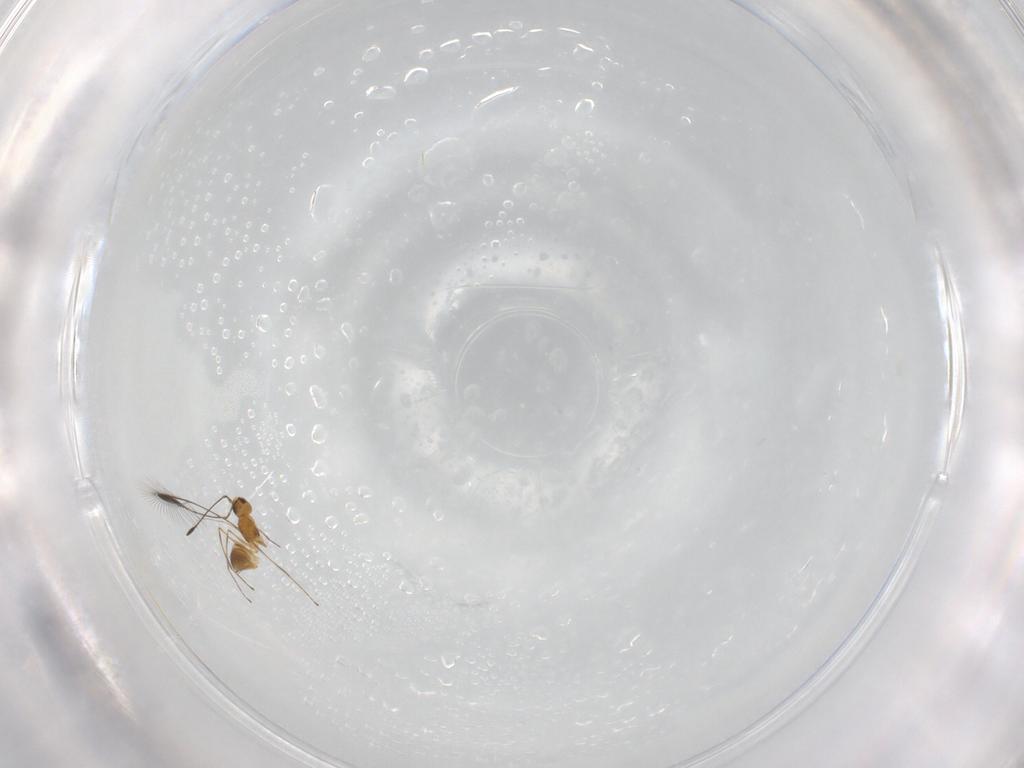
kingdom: Animalia
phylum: Arthropoda
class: Insecta
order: Hymenoptera
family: Mymaridae
